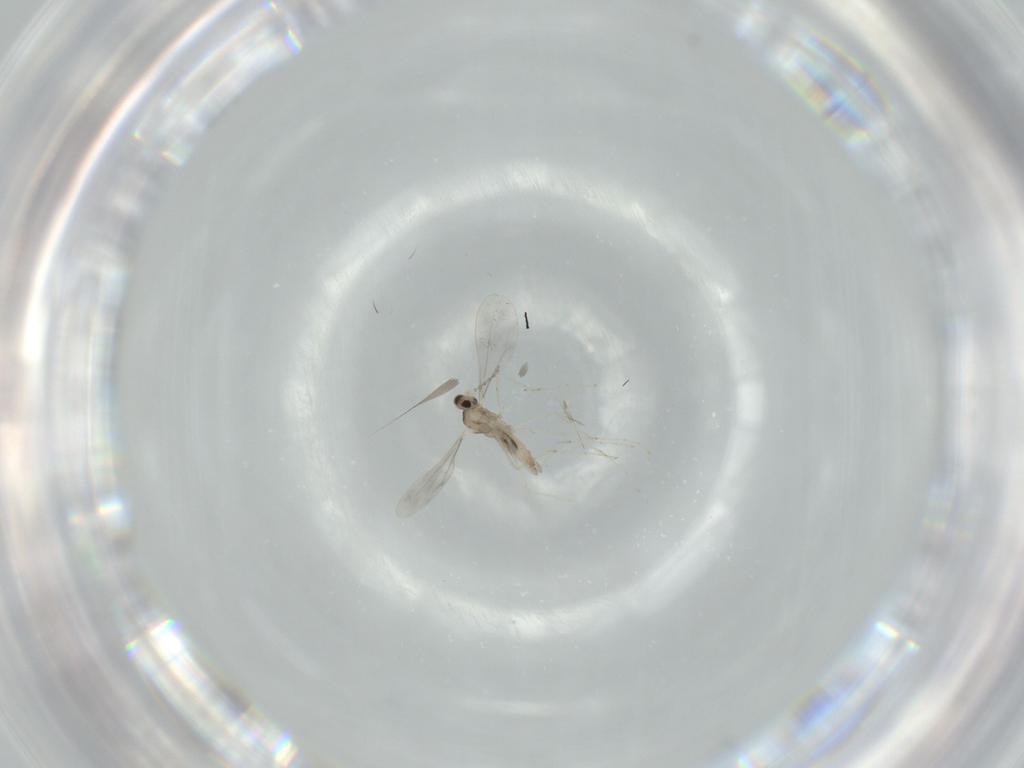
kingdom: Animalia
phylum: Arthropoda
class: Insecta
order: Diptera
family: Cecidomyiidae
